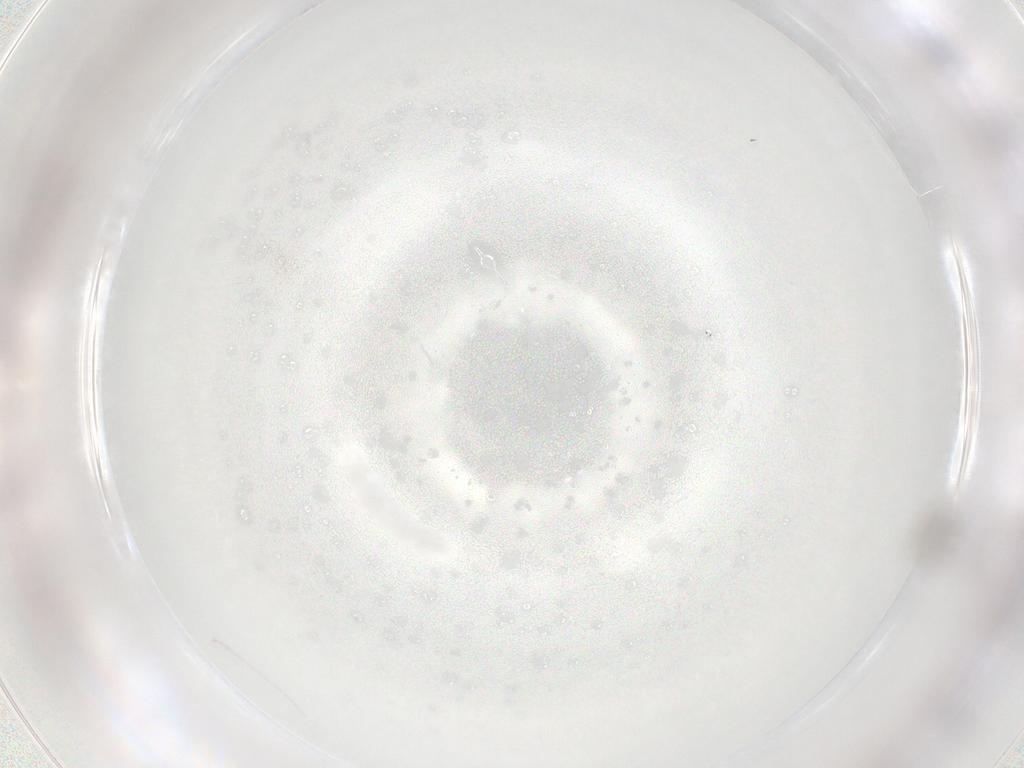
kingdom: Animalia
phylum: Arthropoda
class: Insecta
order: Diptera
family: Ceratopogonidae
